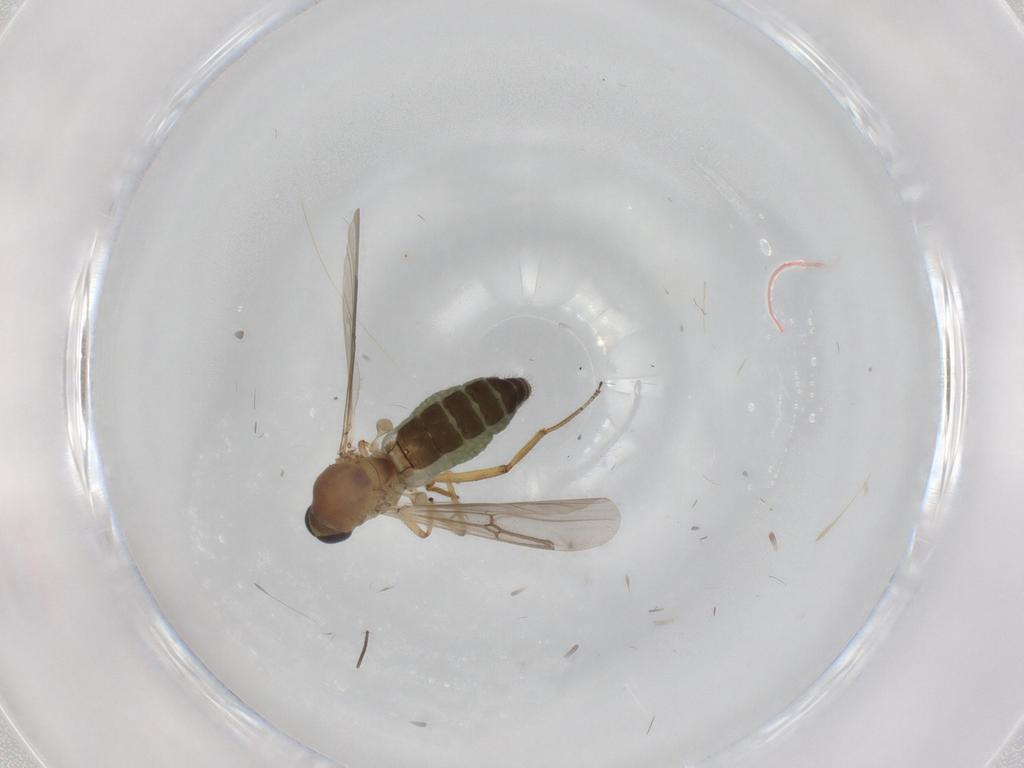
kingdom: Animalia
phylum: Arthropoda
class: Insecta
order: Diptera
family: Ceratopogonidae
